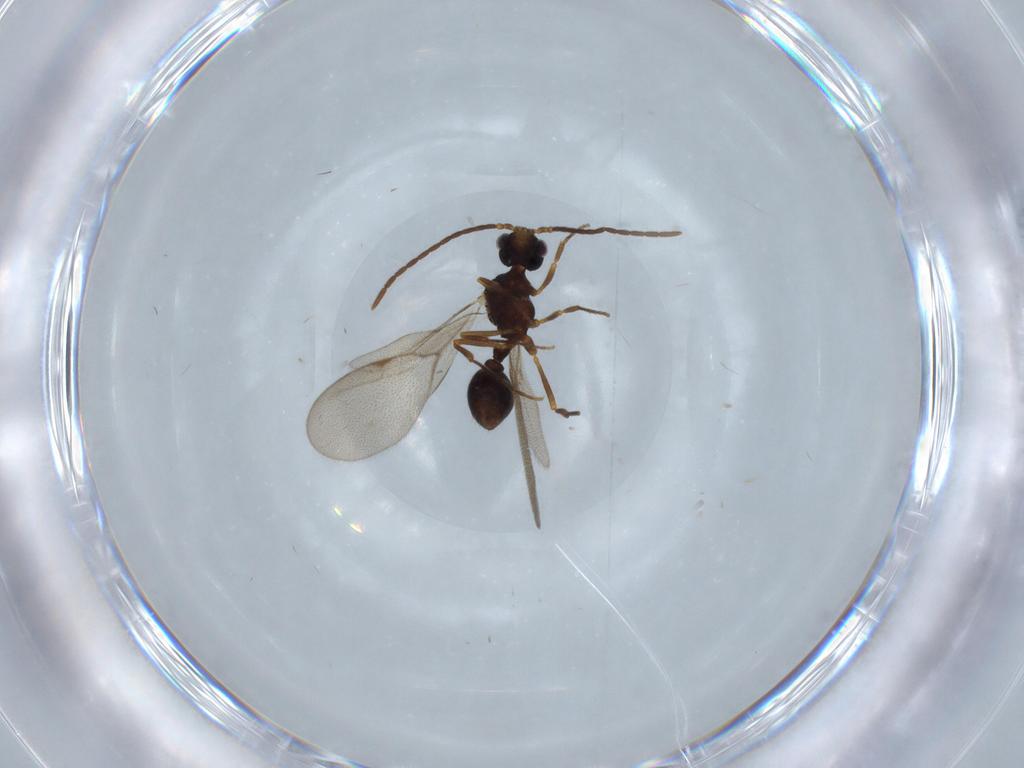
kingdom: Animalia
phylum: Arthropoda
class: Insecta
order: Hymenoptera
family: Formicidae
